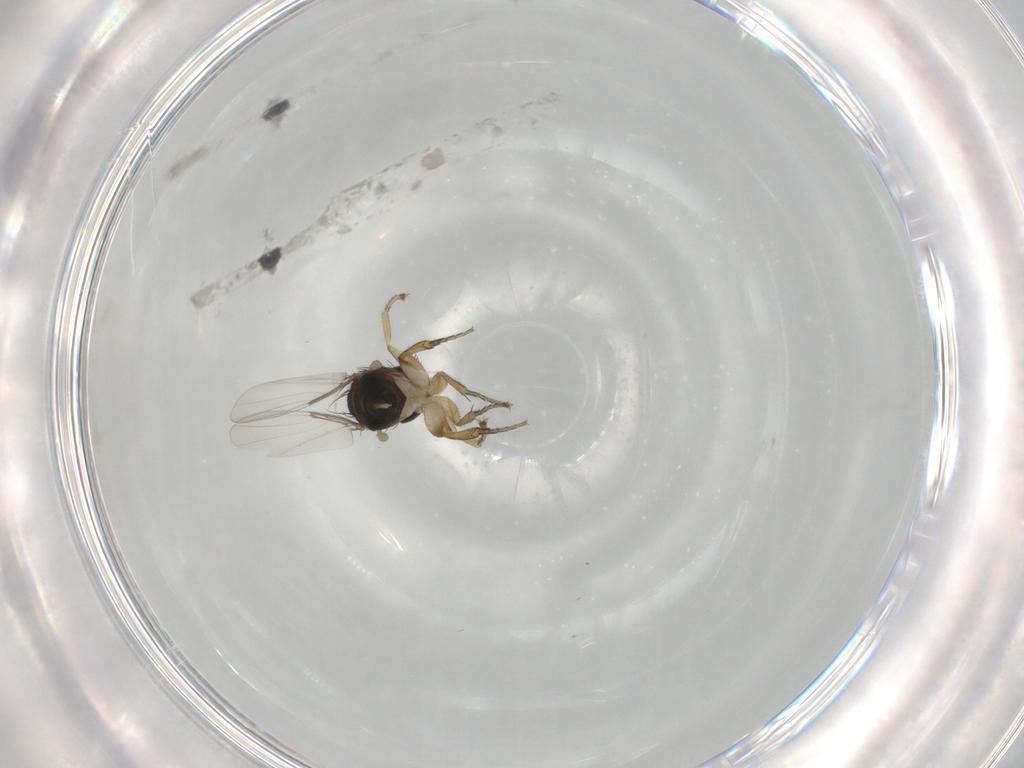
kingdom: Animalia
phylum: Arthropoda
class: Insecta
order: Diptera
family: Phoridae
